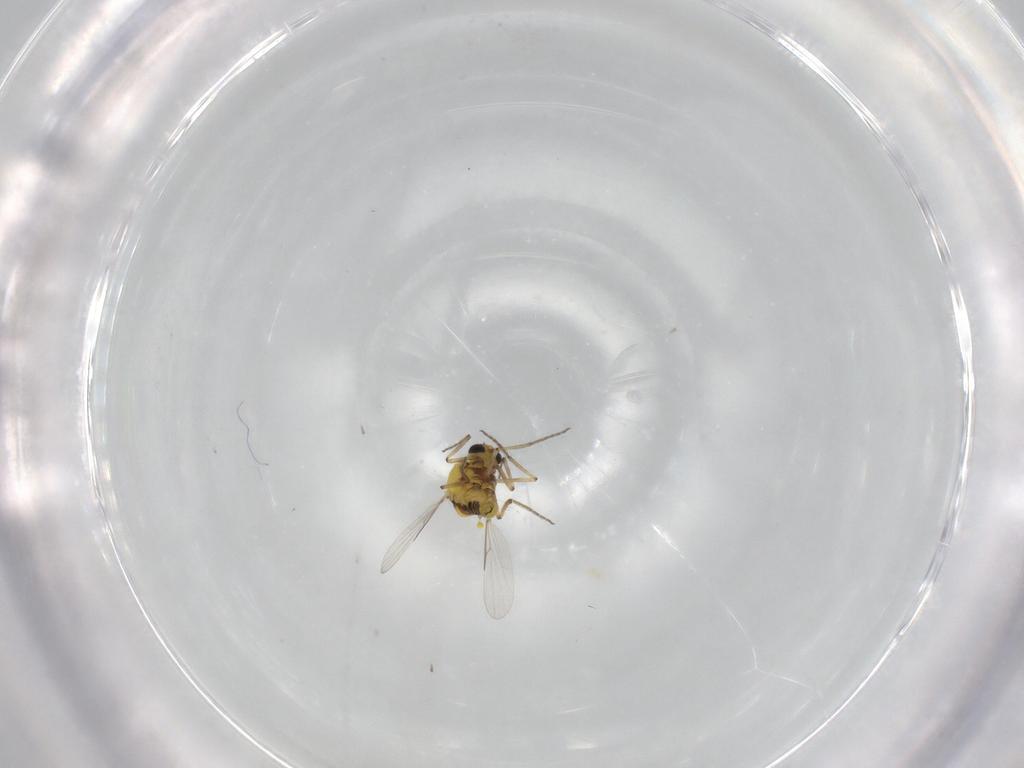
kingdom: Animalia
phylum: Arthropoda
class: Insecta
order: Diptera
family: Ceratopogonidae
